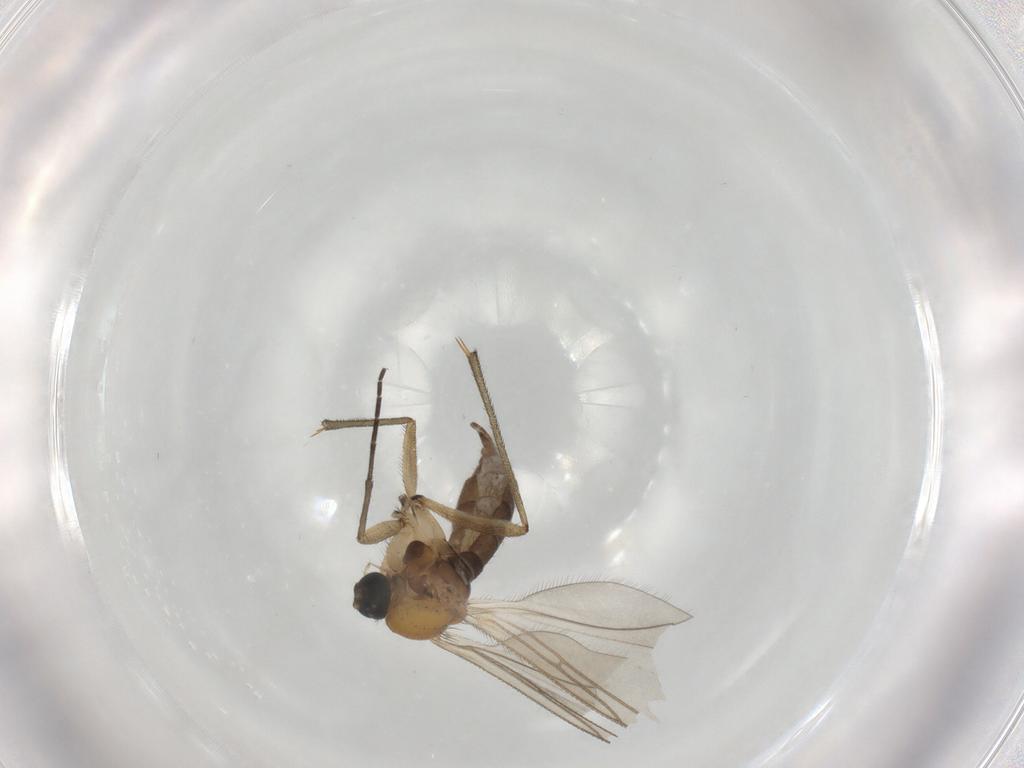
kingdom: Animalia
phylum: Arthropoda
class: Insecta
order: Diptera
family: Sciaridae
